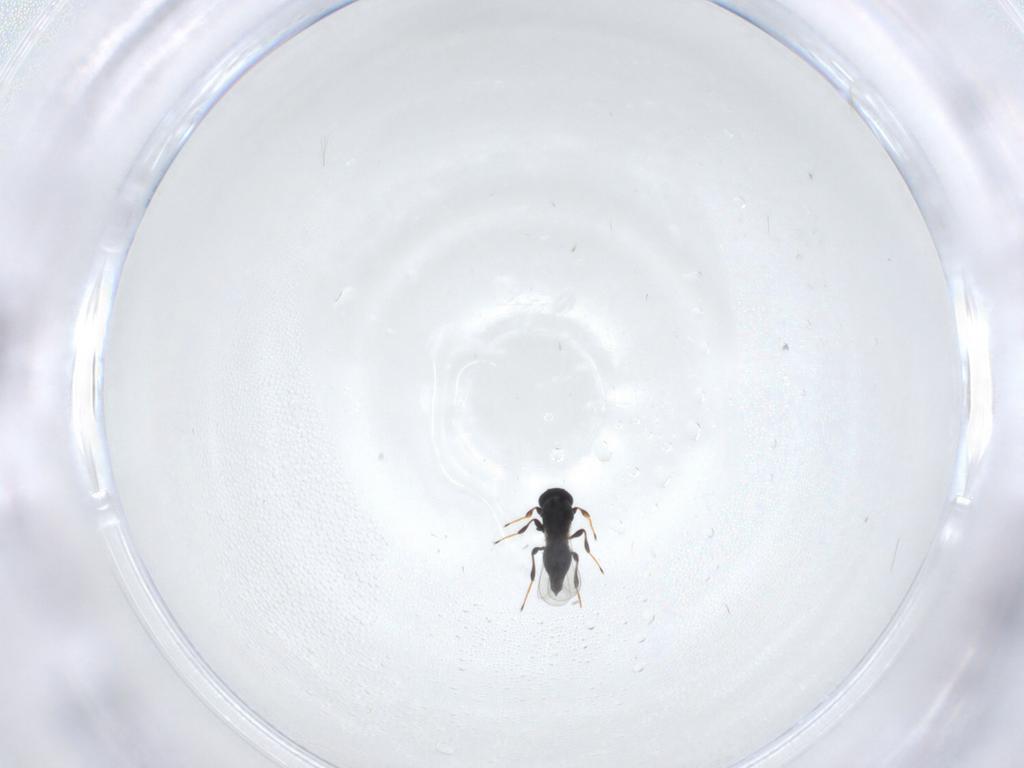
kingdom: Animalia
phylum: Arthropoda
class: Insecta
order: Hymenoptera
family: Platygastridae
